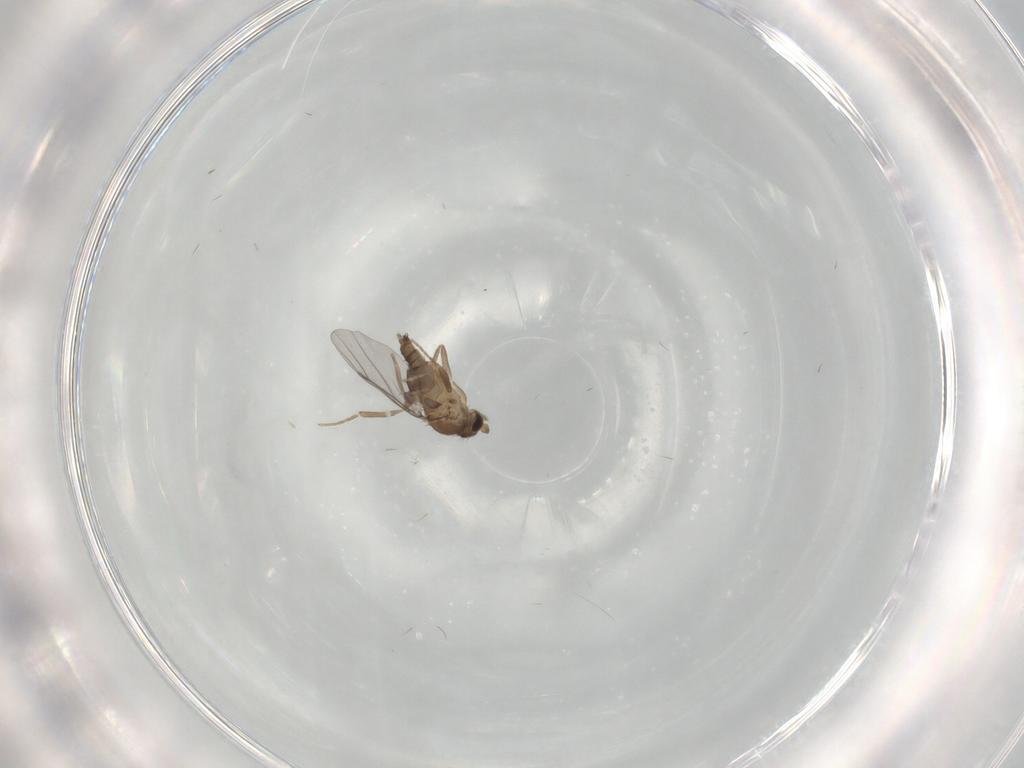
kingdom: Animalia
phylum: Arthropoda
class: Insecta
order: Diptera
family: Sphaeroceridae
